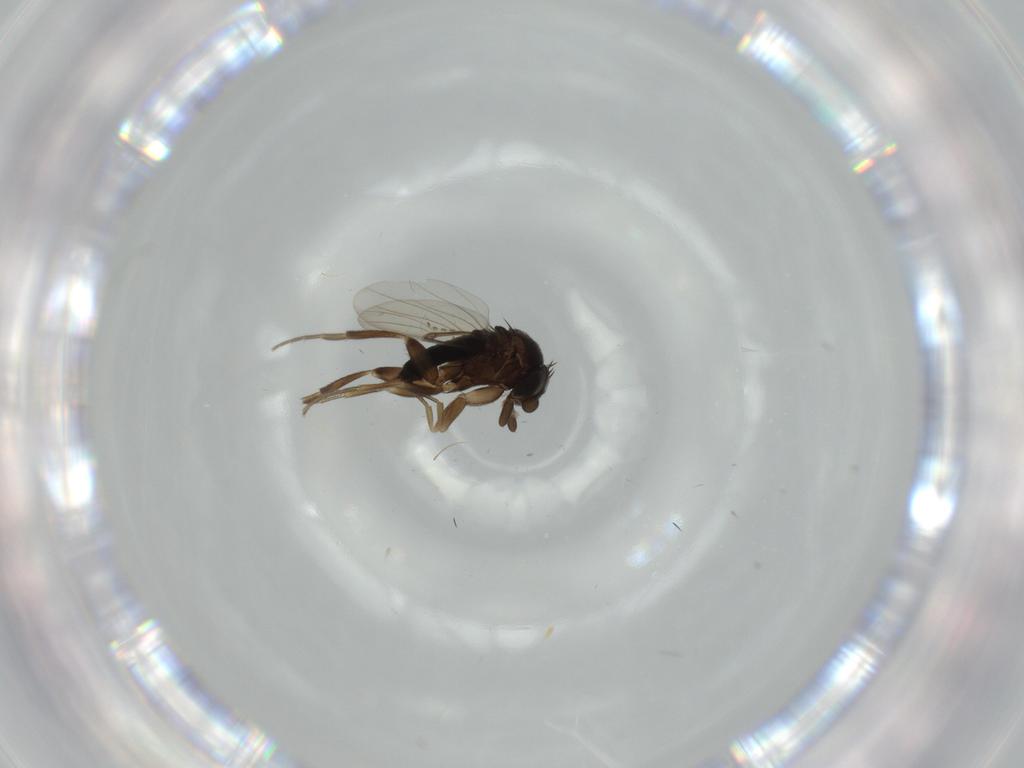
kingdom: Animalia
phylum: Arthropoda
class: Insecta
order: Diptera
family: Phoridae
